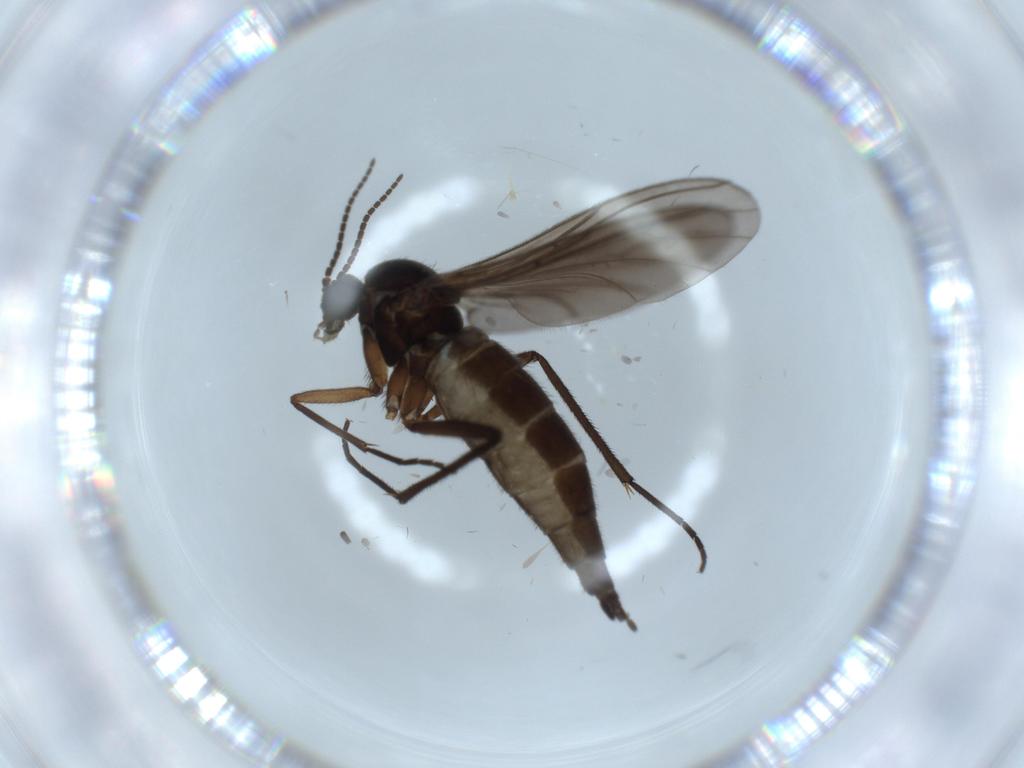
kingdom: Animalia
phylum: Arthropoda
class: Insecta
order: Diptera
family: Sciaridae
